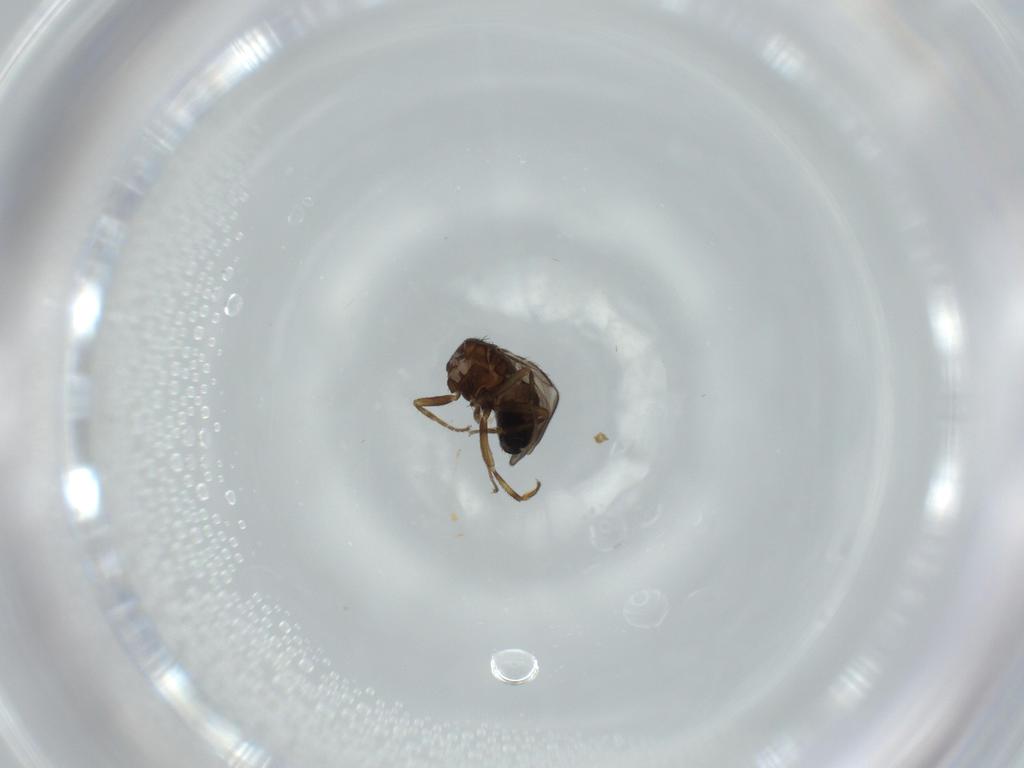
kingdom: Animalia
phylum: Arthropoda
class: Insecta
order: Diptera
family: Sphaeroceridae
